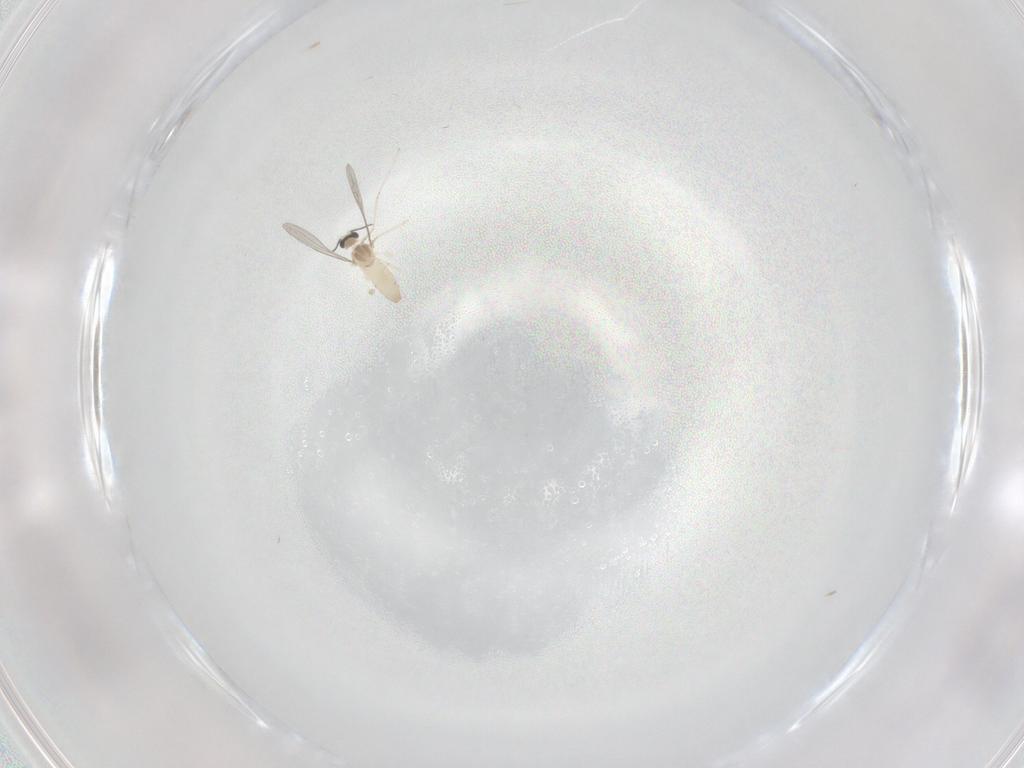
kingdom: Animalia
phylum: Arthropoda
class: Insecta
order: Diptera
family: Cecidomyiidae
